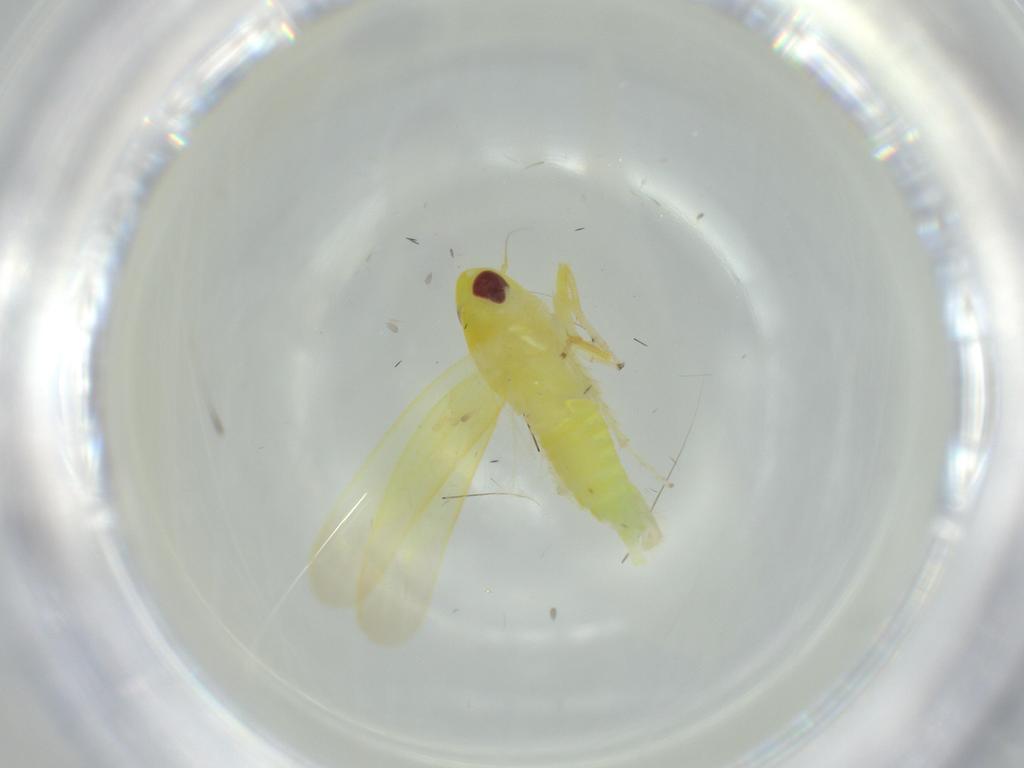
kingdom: Animalia
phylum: Arthropoda
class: Insecta
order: Hemiptera
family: Cicadellidae
